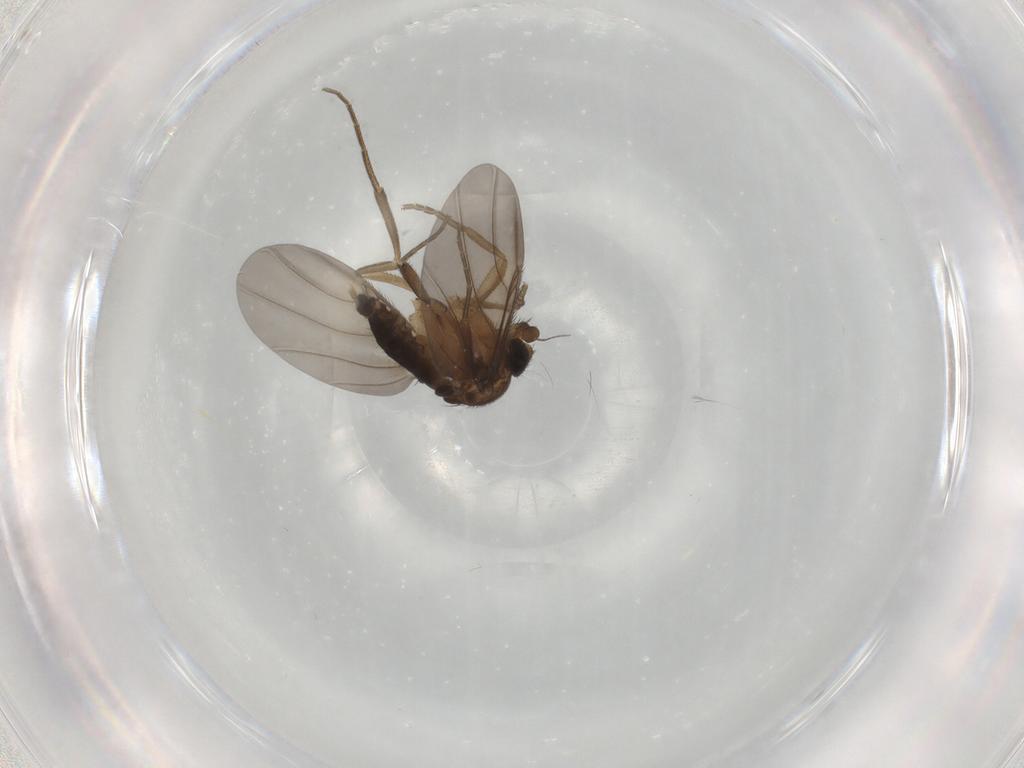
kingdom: Animalia
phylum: Arthropoda
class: Insecta
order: Diptera
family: Phoridae
